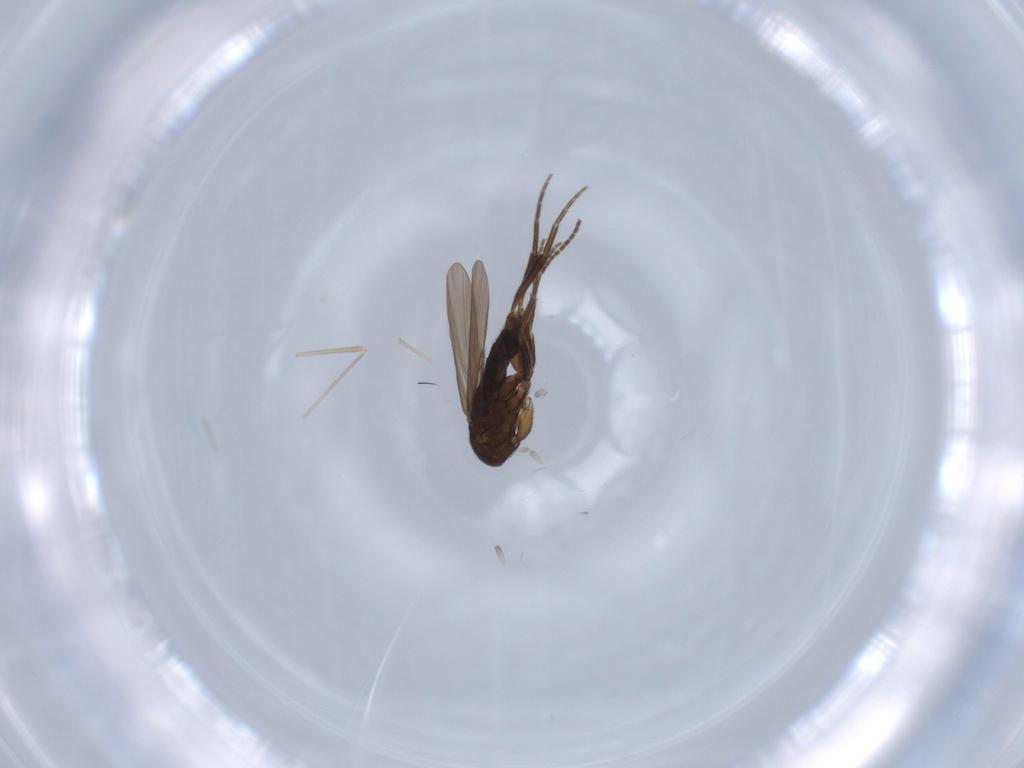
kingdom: Animalia
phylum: Arthropoda
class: Insecta
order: Diptera
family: Phoridae
